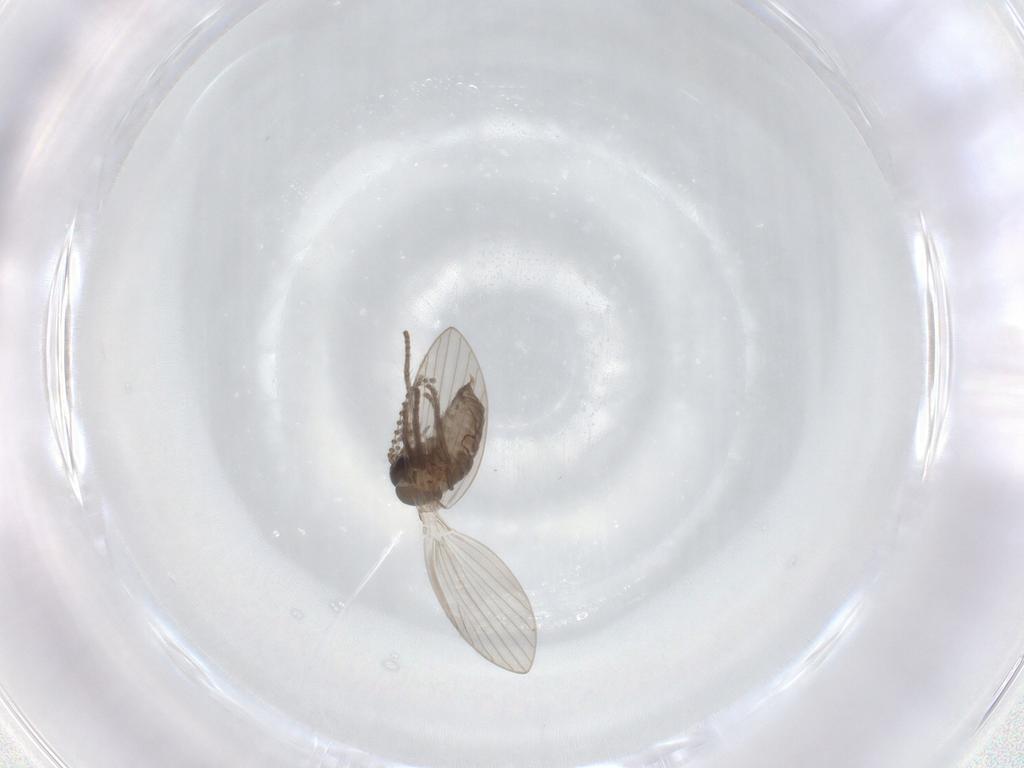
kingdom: Animalia
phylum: Arthropoda
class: Insecta
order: Diptera
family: Psychodidae
